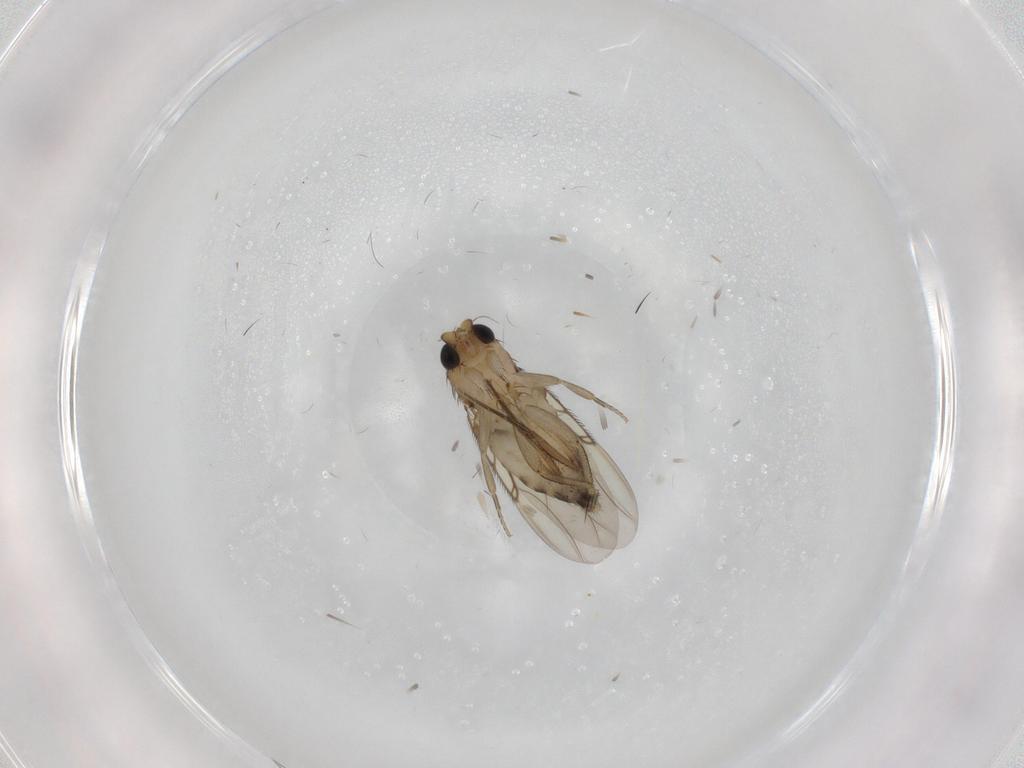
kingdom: Animalia
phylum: Arthropoda
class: Insecta
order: Diptera
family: Phoridae
